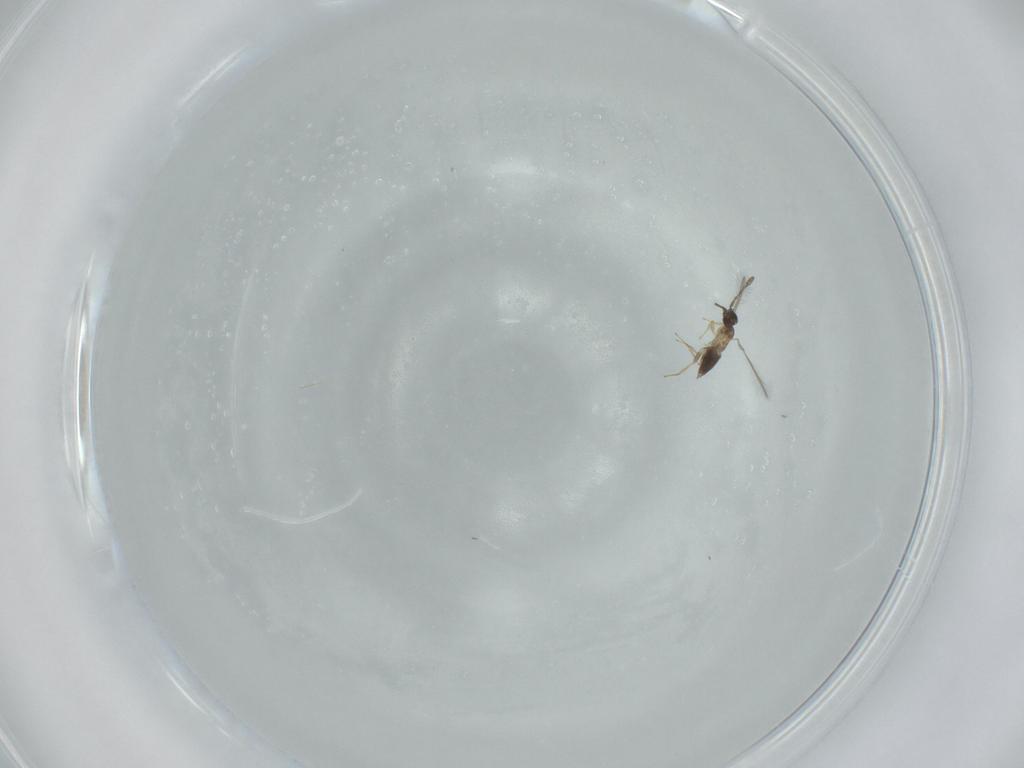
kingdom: Animalia
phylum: Arthropoda
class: Insecta
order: Hymenoptera
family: Mymaridae
